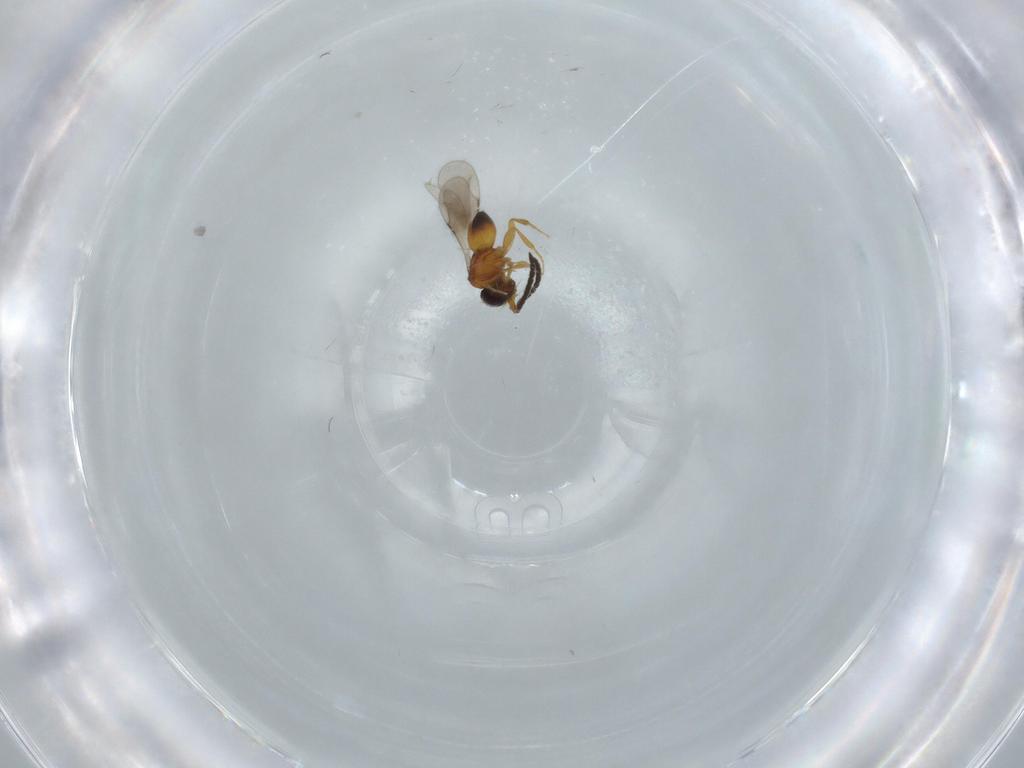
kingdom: Animalia
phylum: Arthropoda
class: Insecta
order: Hymenoptera
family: Ceraphronidae
